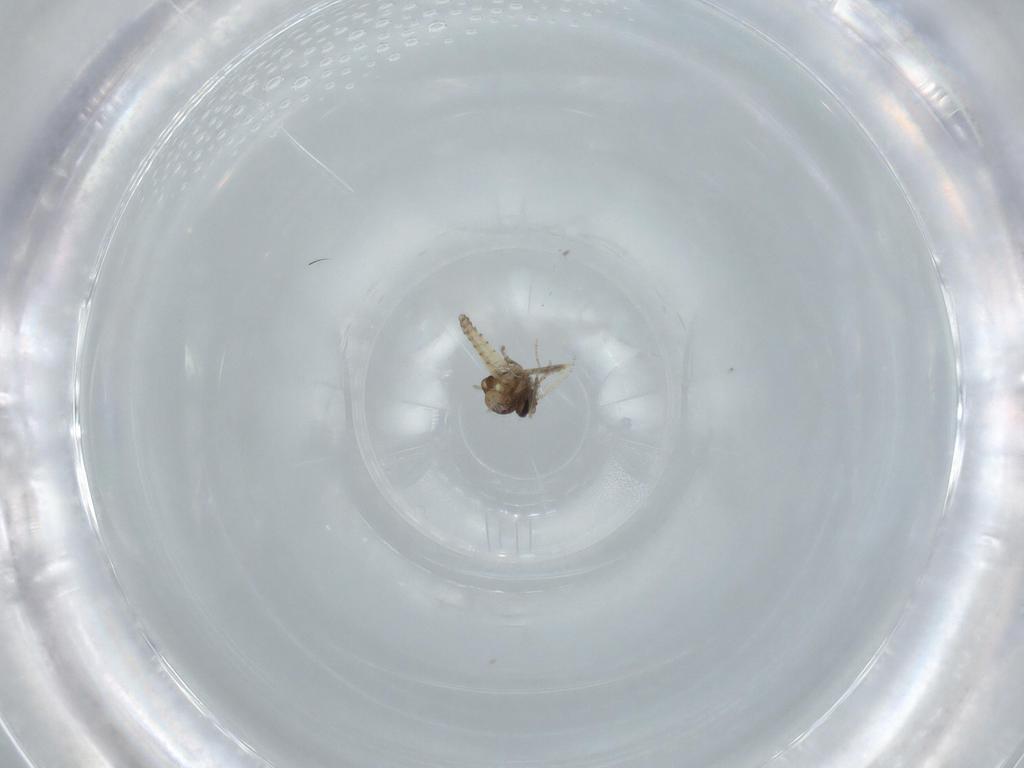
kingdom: Animalia
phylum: Arthropoda
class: Insecta
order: Diptera
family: Ceratopogonidae
